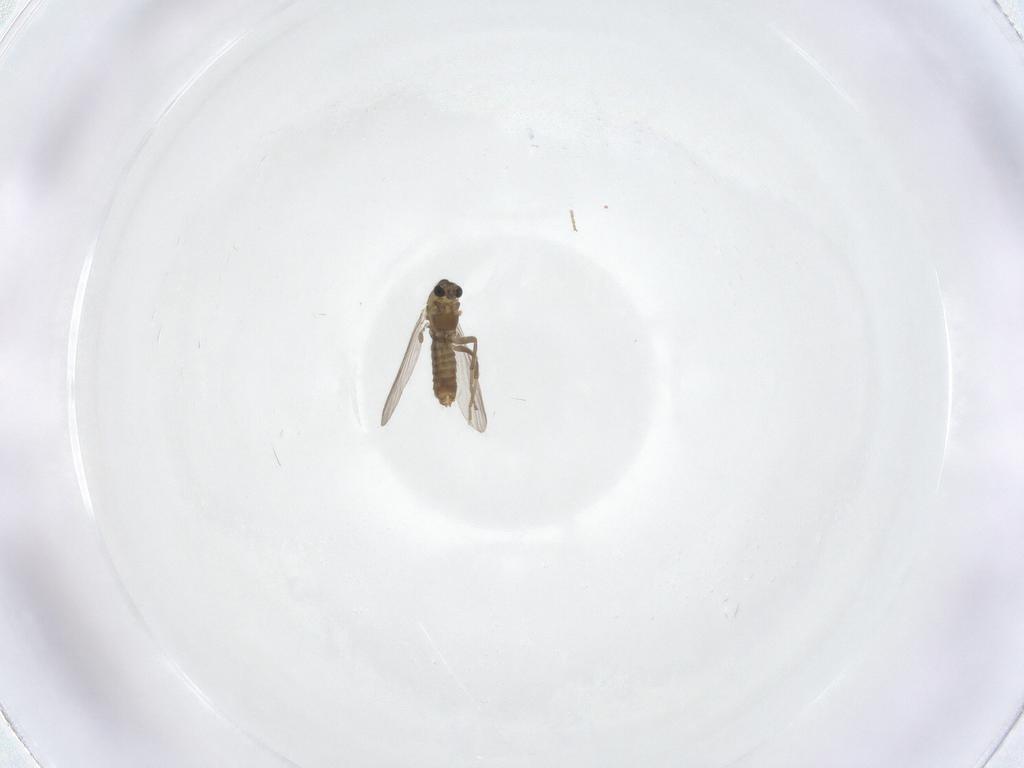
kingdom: Animalia
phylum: Arthropoda
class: Insecta
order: Diptera
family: Chironomidae
